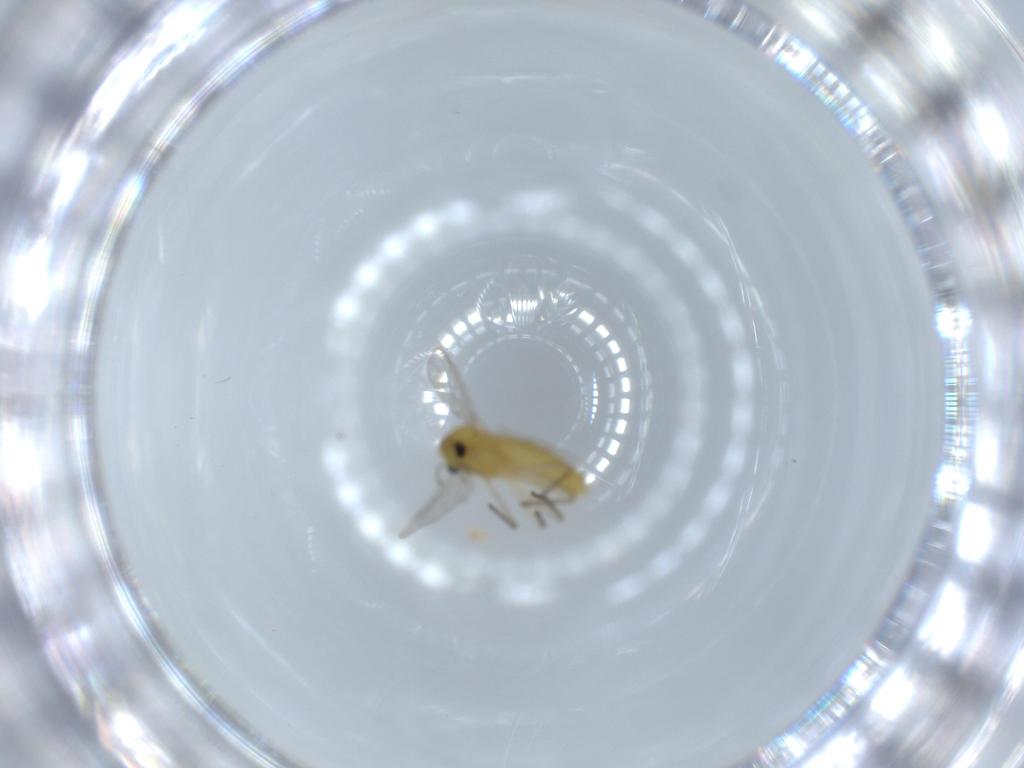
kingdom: Animalia
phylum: Arthropoda
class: Insecta
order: Diptera
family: Chironomidae
